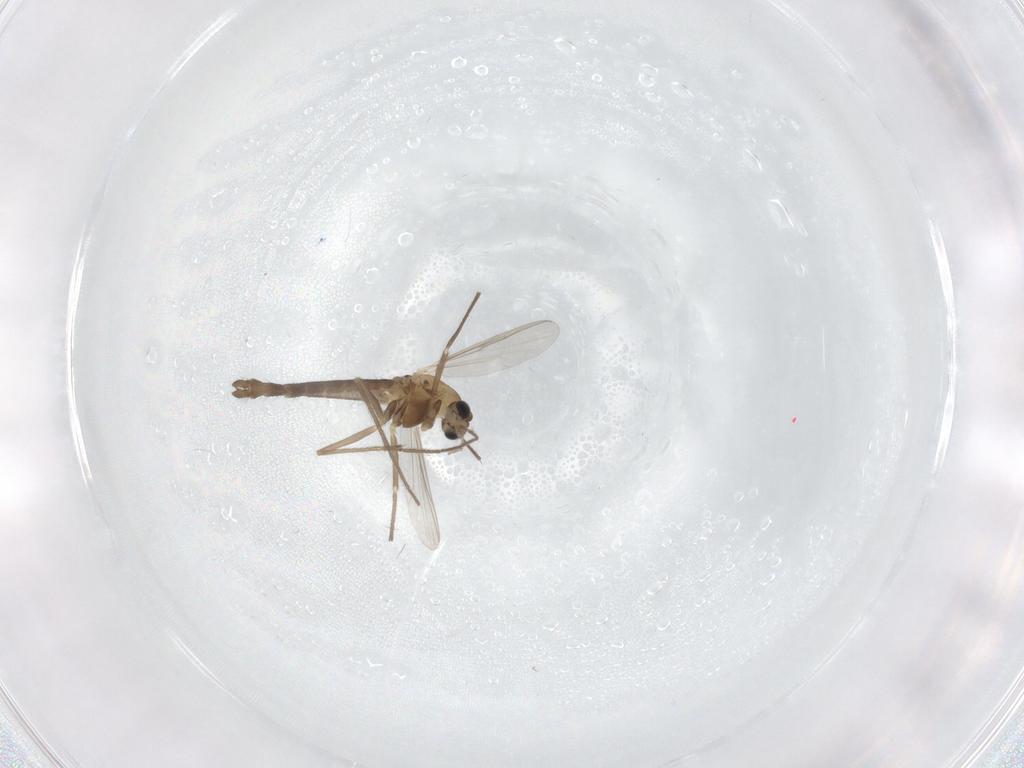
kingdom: Animalia
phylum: Arthropoda
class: Insecta
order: Diptera
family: Chironomidae
